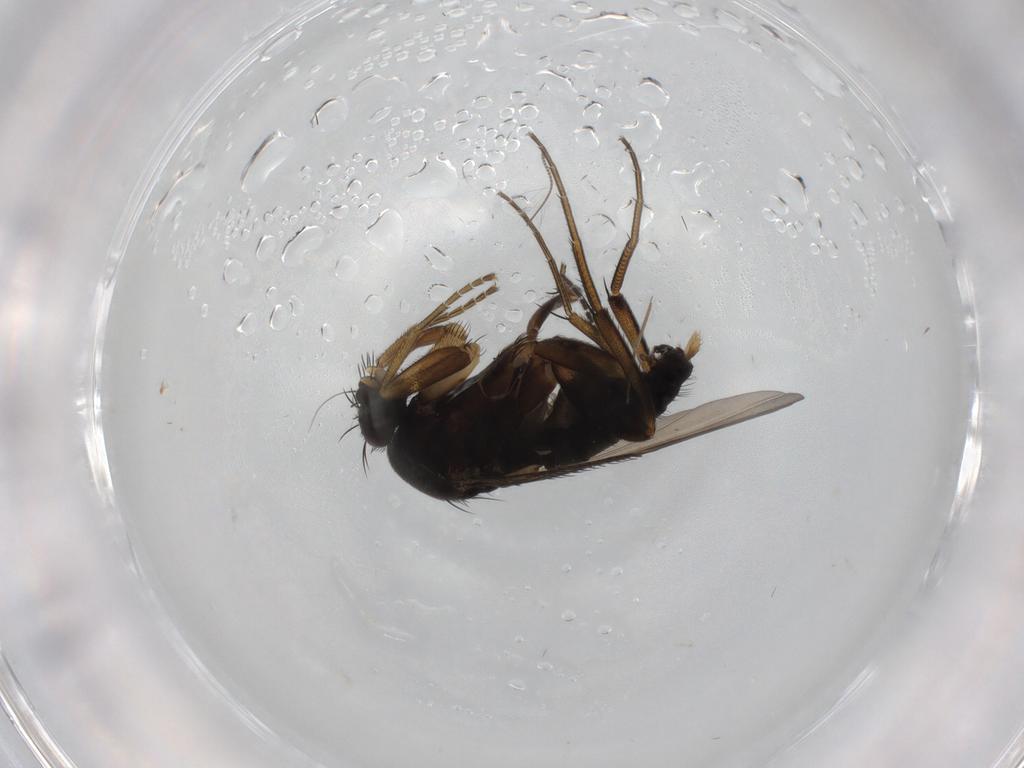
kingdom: Animalia
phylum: Arthropoda
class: Insecta
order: Diptera
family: Phoridae
